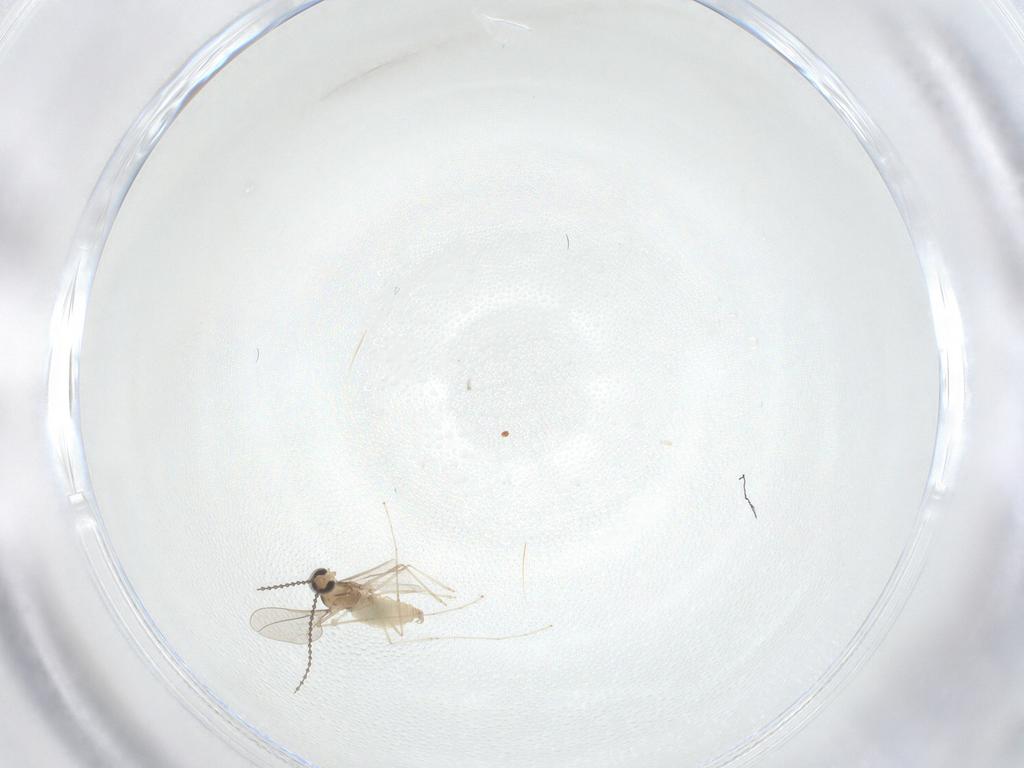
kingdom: Animalia
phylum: Arthropoda
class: Insecta
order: Diptera
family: Cecidomyiidae
